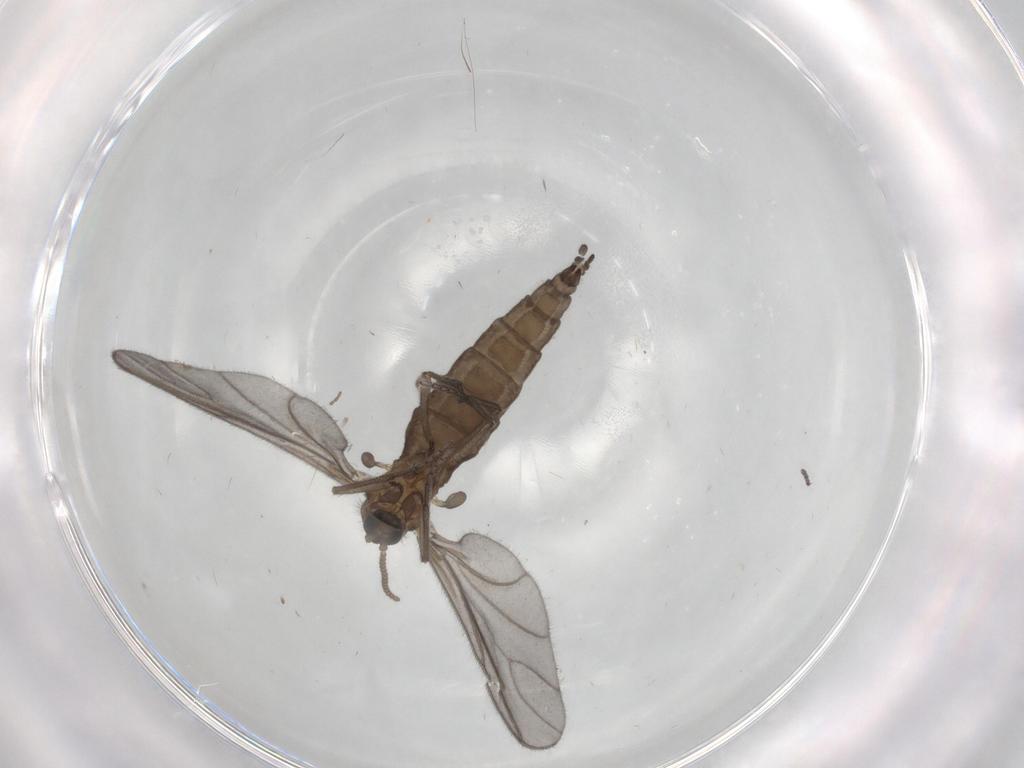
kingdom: Animalia
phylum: Arthropoda
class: Insecta
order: Diptera
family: Sciaridae
